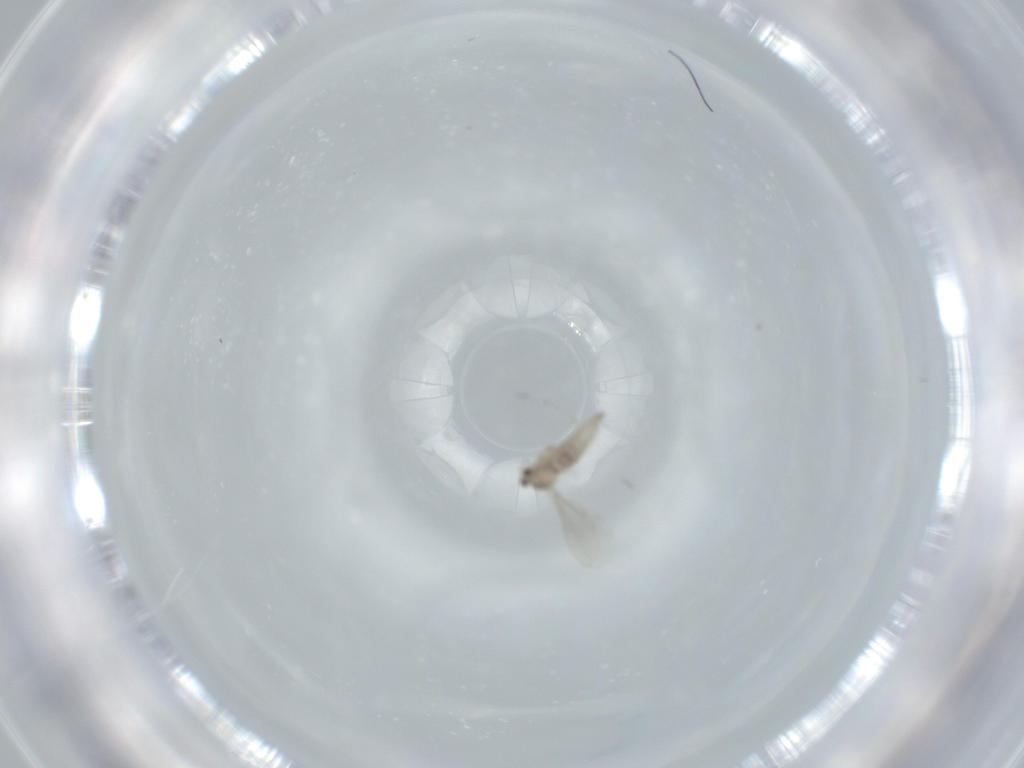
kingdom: Animalia
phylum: Arthropoda
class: Insecta
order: Diptera
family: Cecidomyiidae
